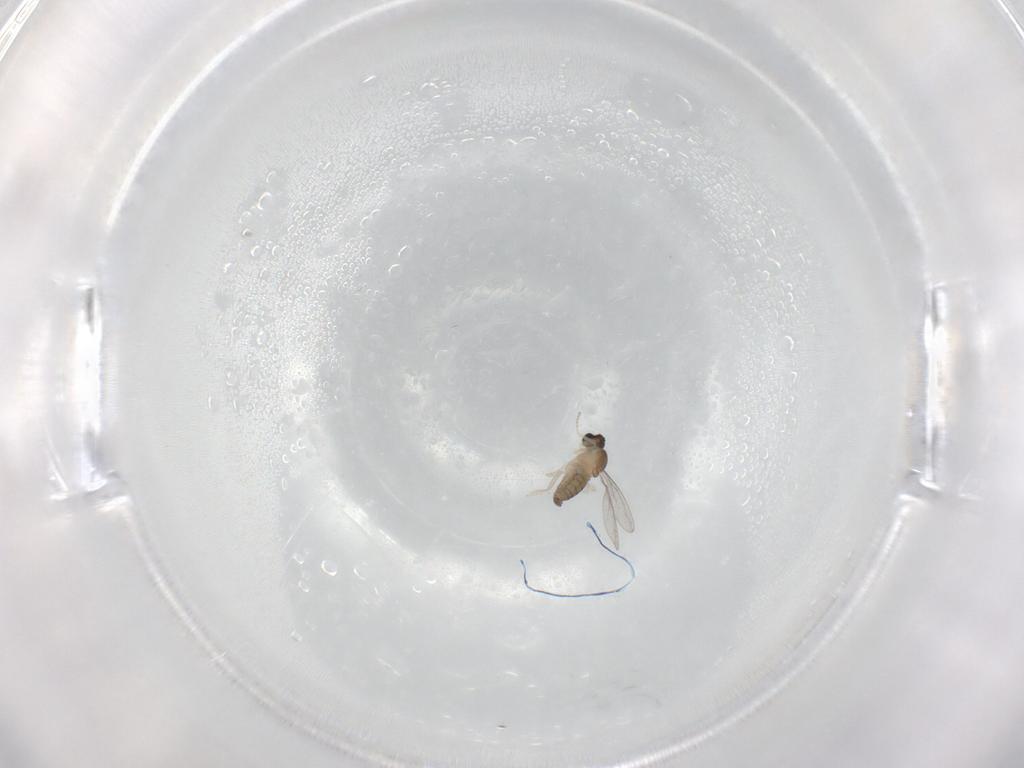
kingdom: Animalia
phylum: Arthropoda
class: Insecta
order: Diptera
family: Cecidomyiidae
